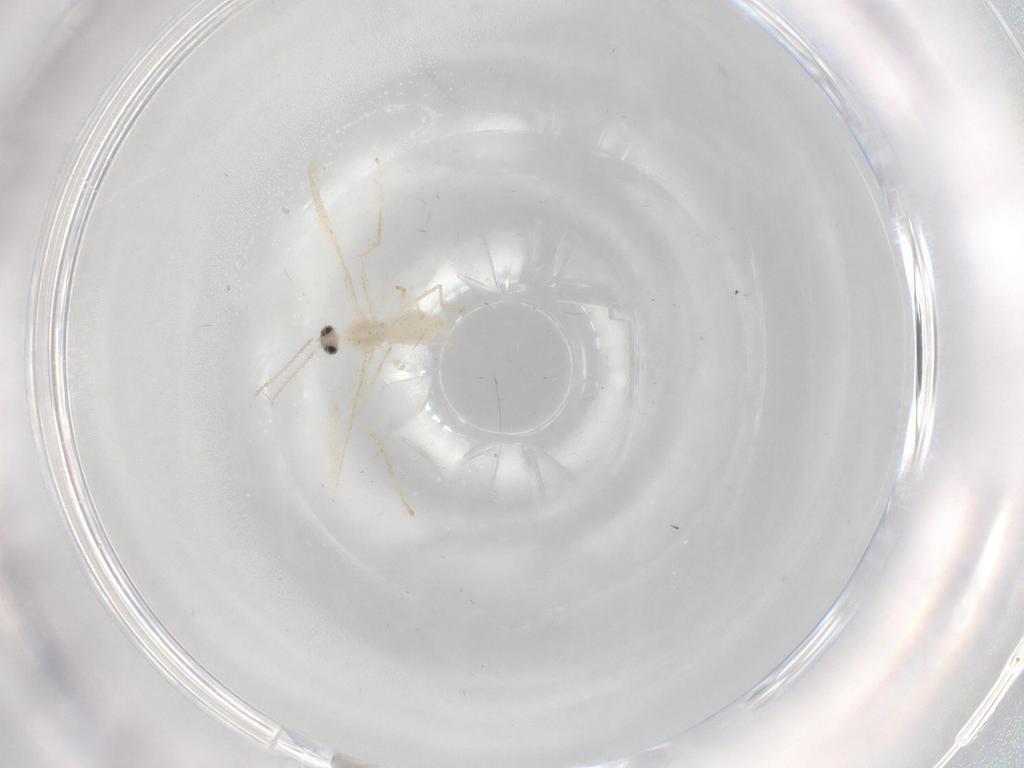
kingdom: Animalia
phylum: Arthropoda
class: Insecta
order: Diptera
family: Cecidomyiidae
